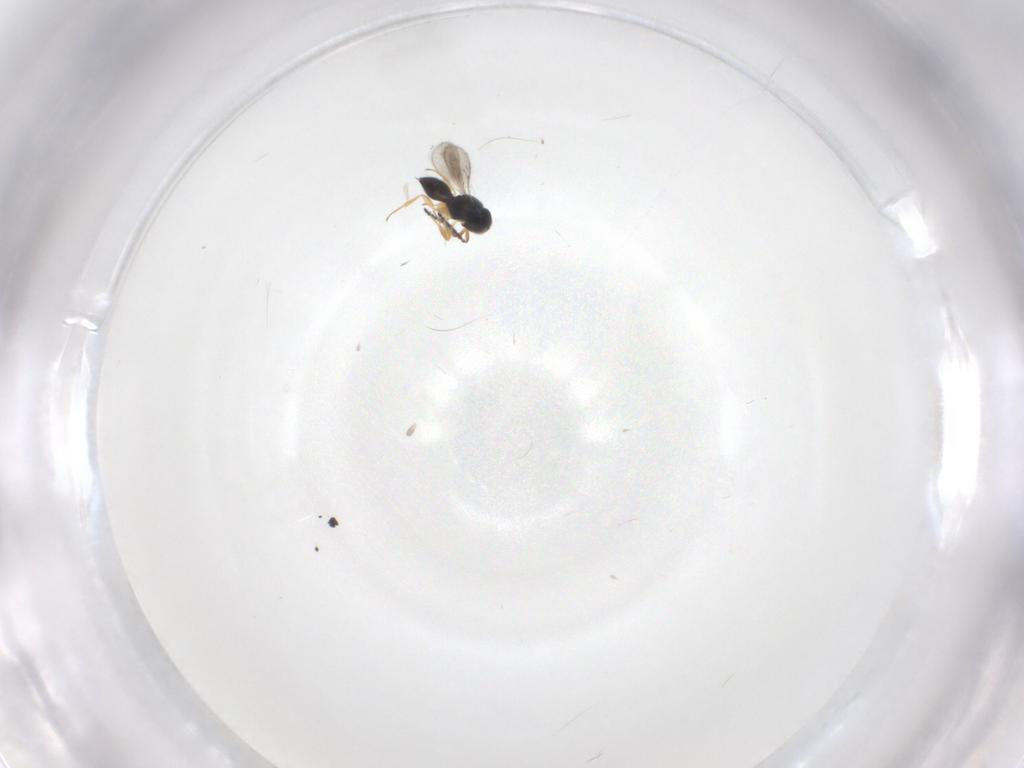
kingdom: Animalia
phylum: Arthropoda
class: Insecta
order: Hymenoptera
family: Scelionidae
